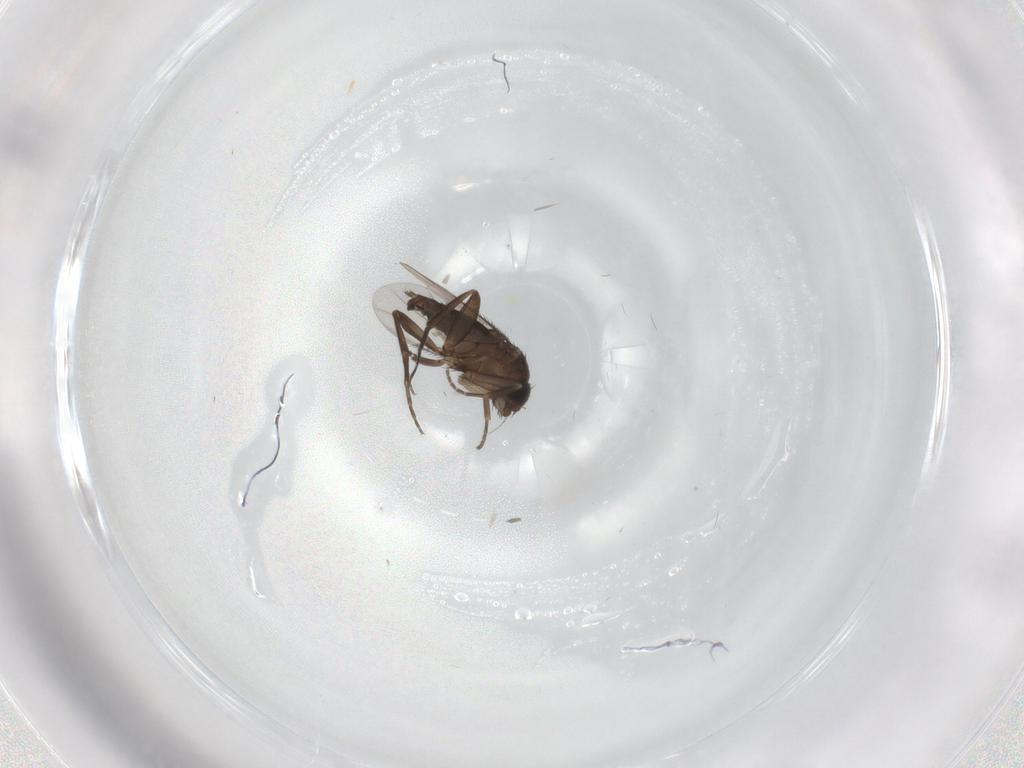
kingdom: Animalia
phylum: Arthropoda
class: Insecta
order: Diptera
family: Phoridae
